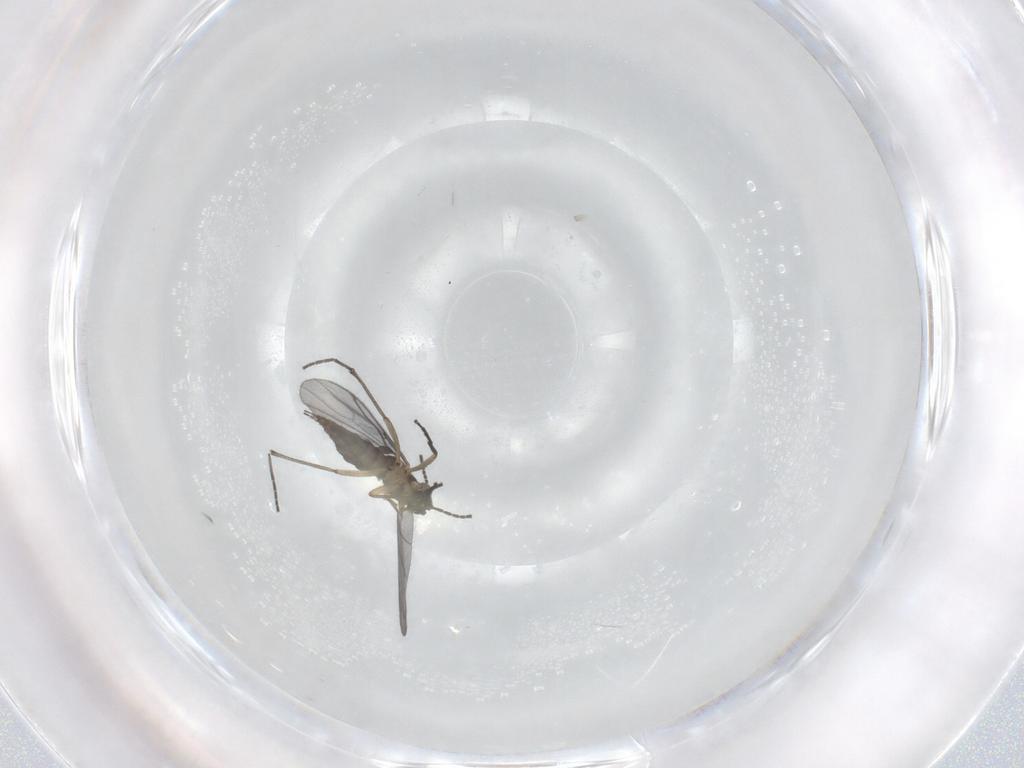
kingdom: Animalia
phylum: Arthropoda
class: Insecta
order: Diptera
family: Sciaridae
